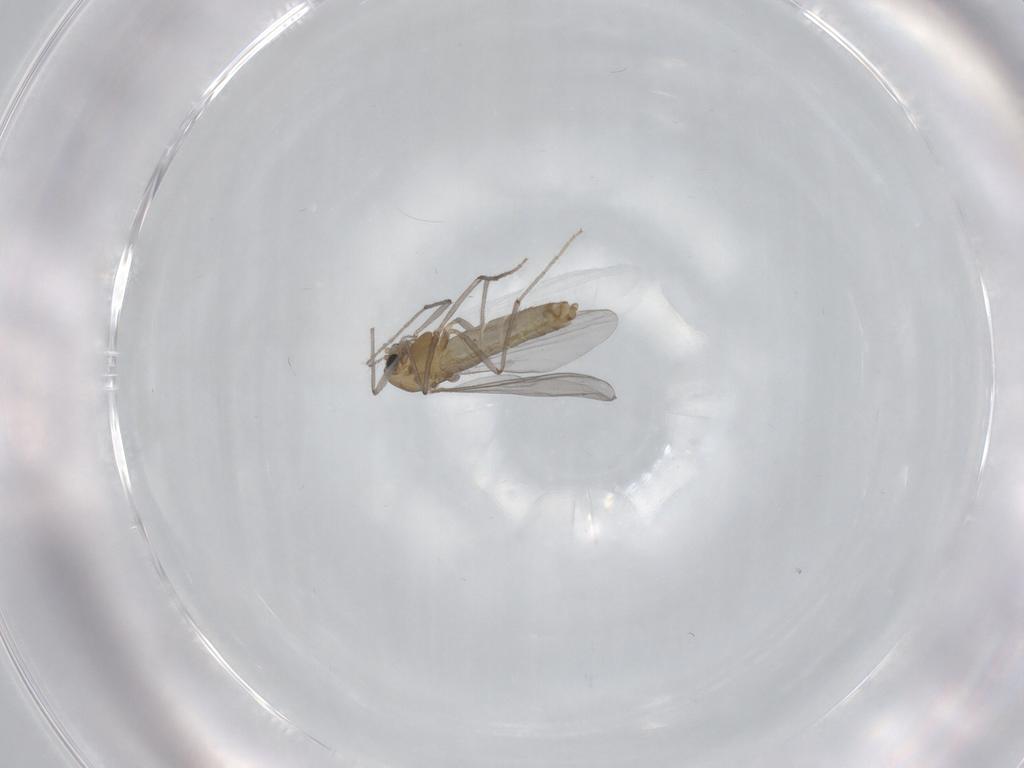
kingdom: Animalia
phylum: Arthropoda
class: Insecta
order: Diptera
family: Chironomidae
